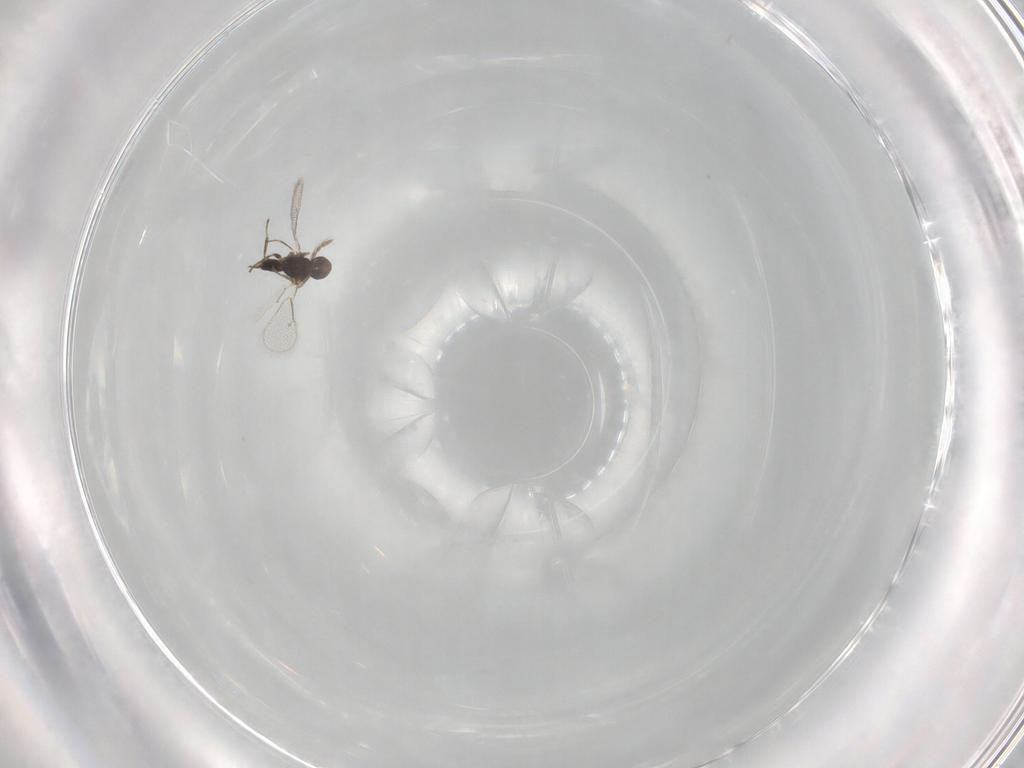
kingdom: Animalia
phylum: Arthropoda
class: Insecta
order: Hymenoptera
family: Eulophidae
